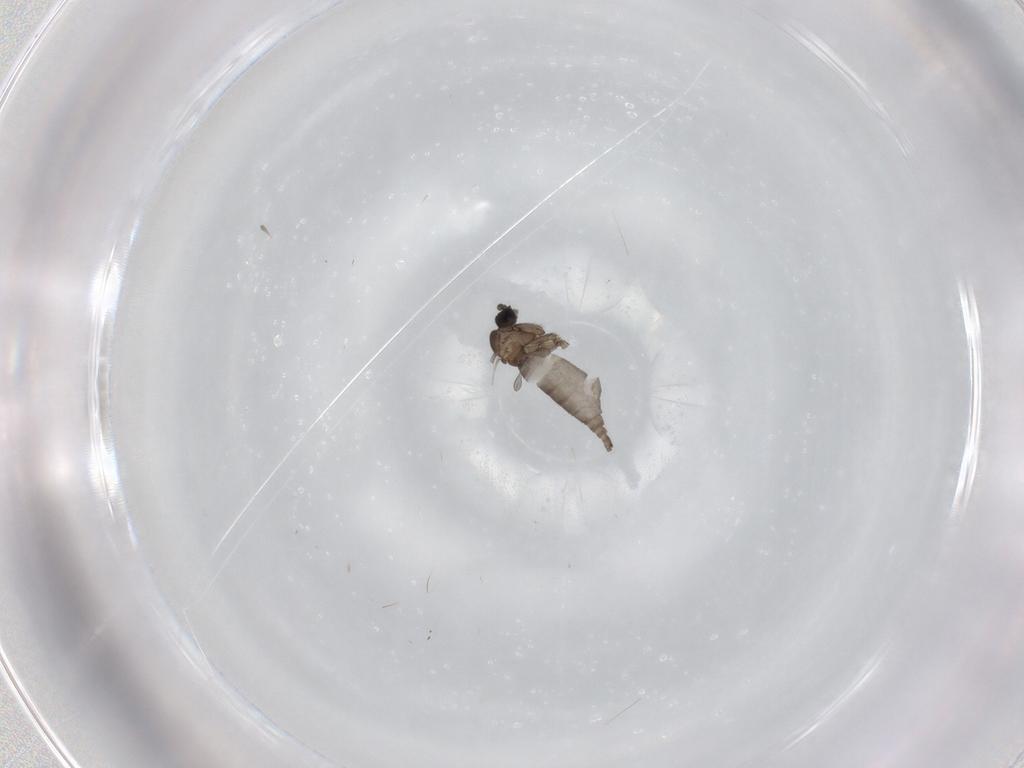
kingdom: Animalia
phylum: Arthropoda
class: Insecta
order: Diptera
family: Sciaridae
